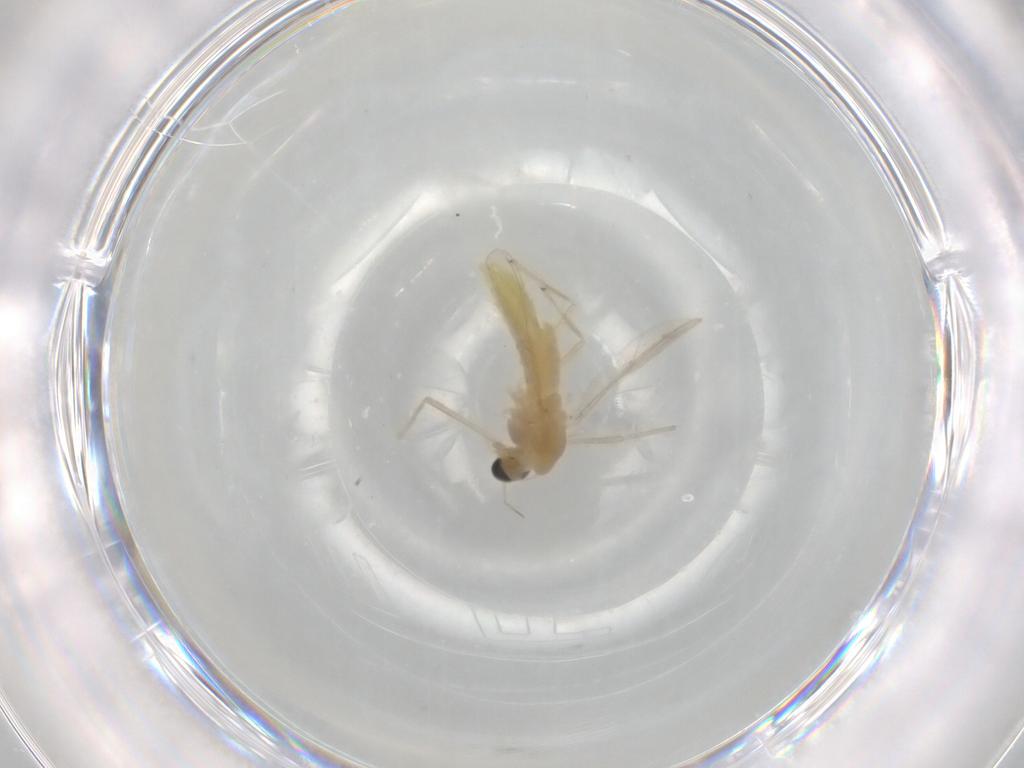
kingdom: Animalia
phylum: Arthropoda
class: Insecta
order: Diptera
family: Chironomidae
